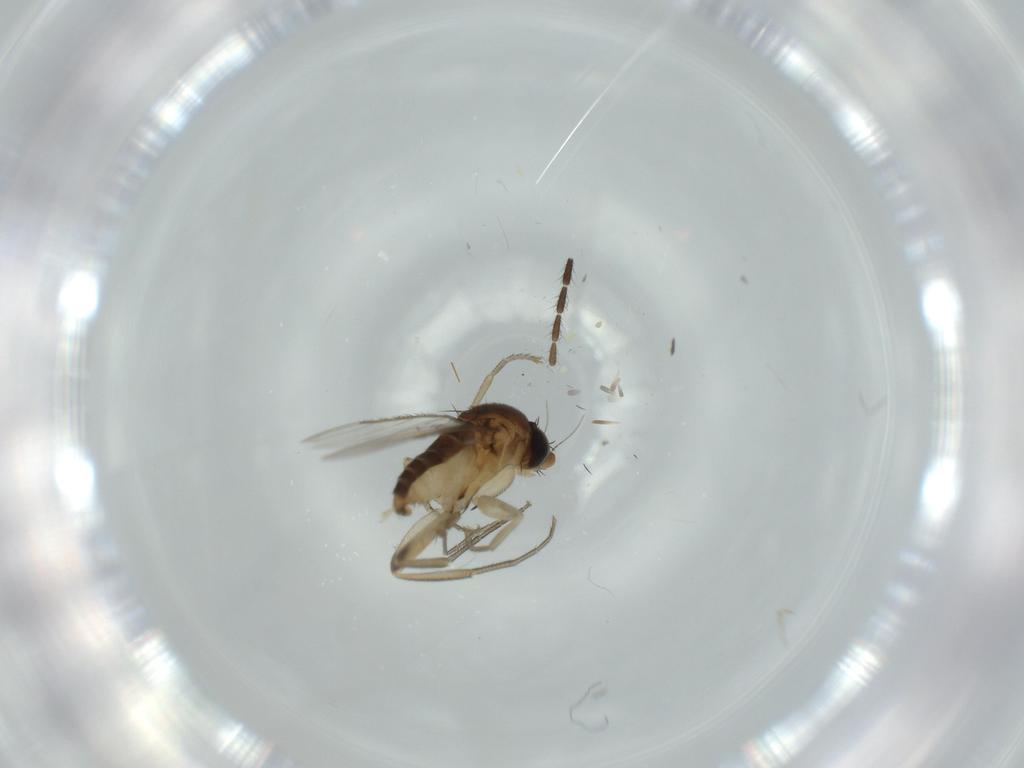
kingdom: Animalia
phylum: Arthropoda
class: Insecta
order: Diptera
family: Phoridae
